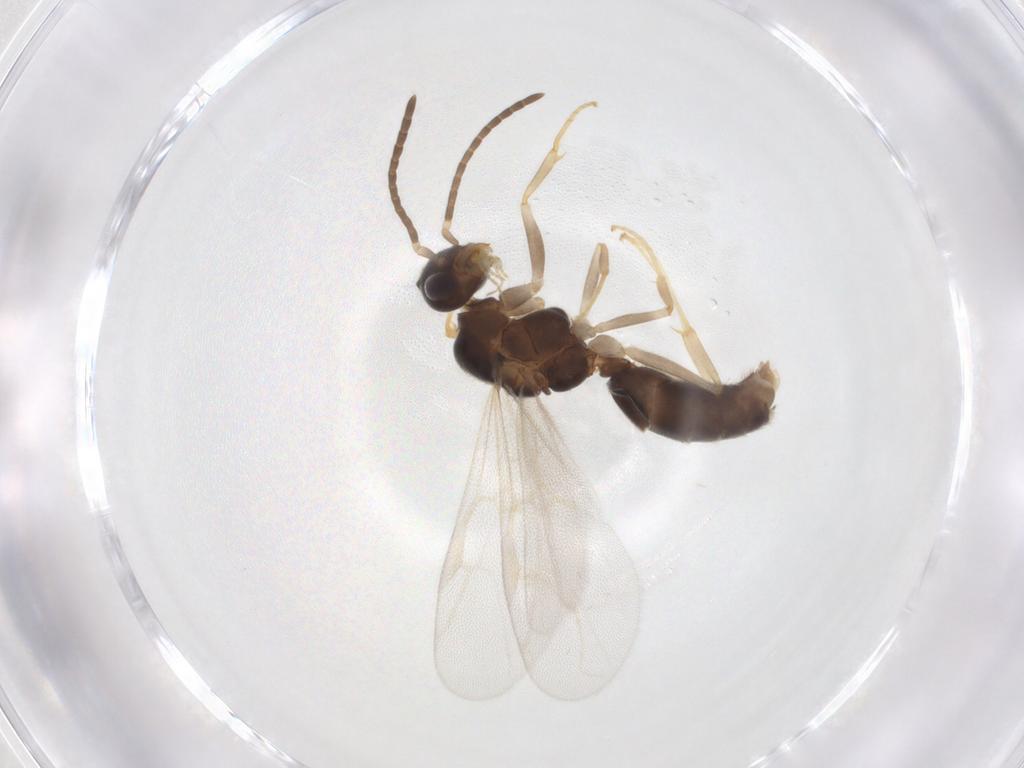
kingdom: Animalia
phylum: Arthropoda
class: Insecta
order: Hymenoptera
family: Formicidae
